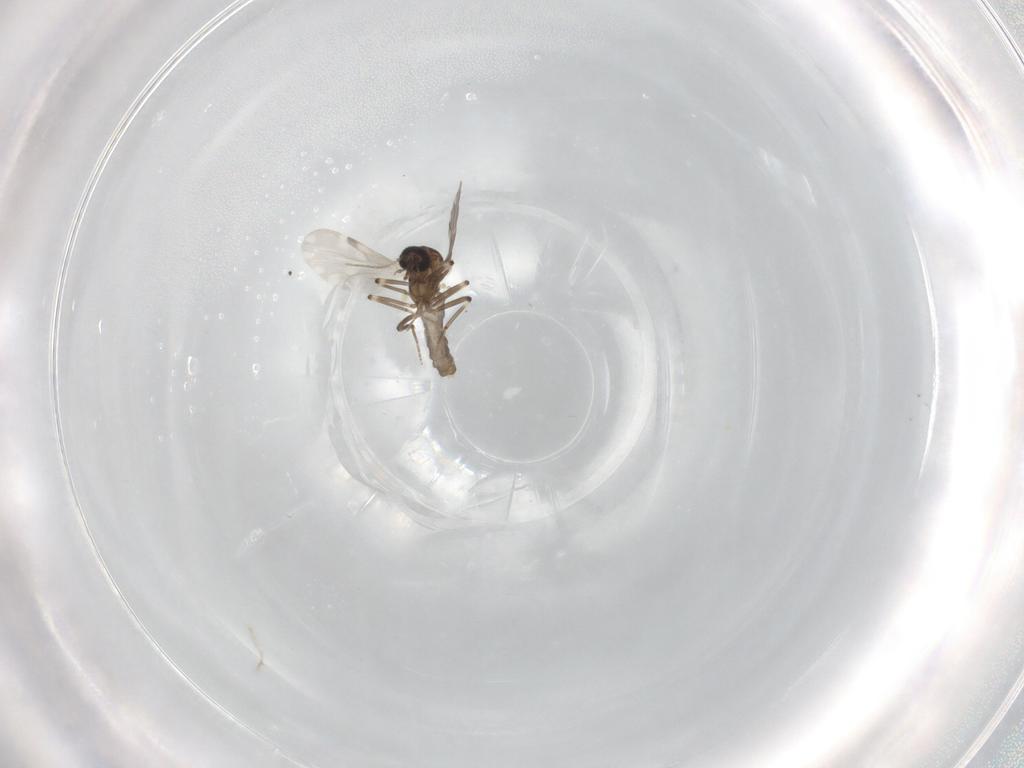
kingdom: Animalia
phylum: Arthropoda
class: Insecta
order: Diptera
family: Ceratopogonidae
